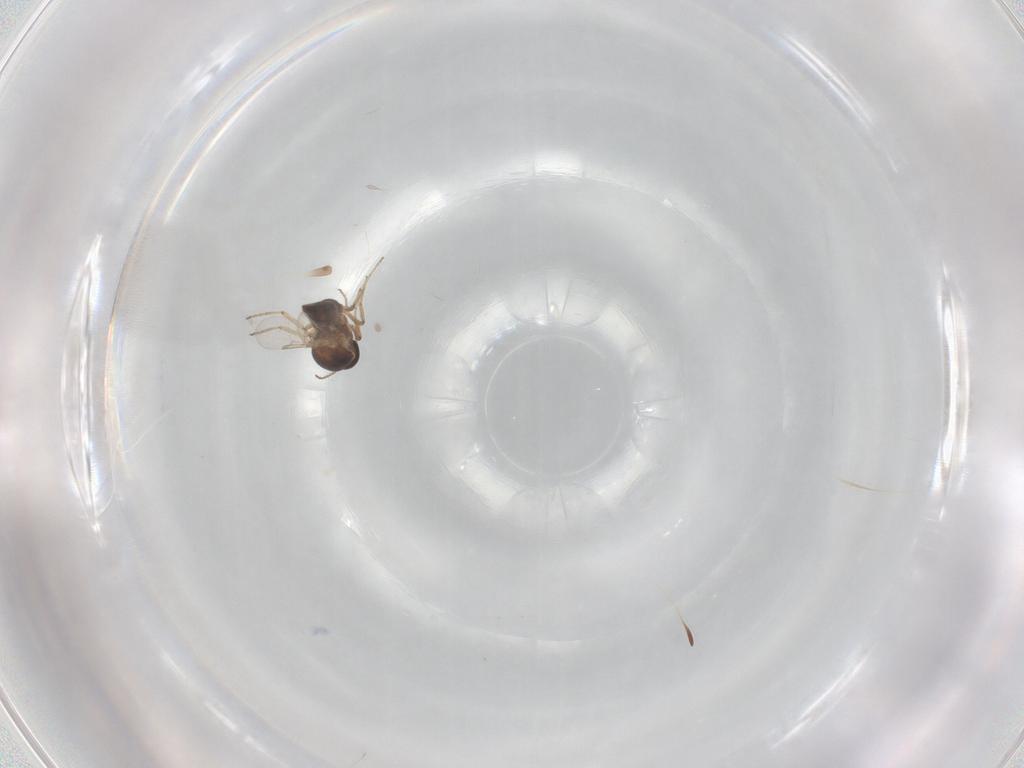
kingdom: Animalia
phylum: Arthropoda
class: Insecta
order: Diptera
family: Ceratopogonidae
